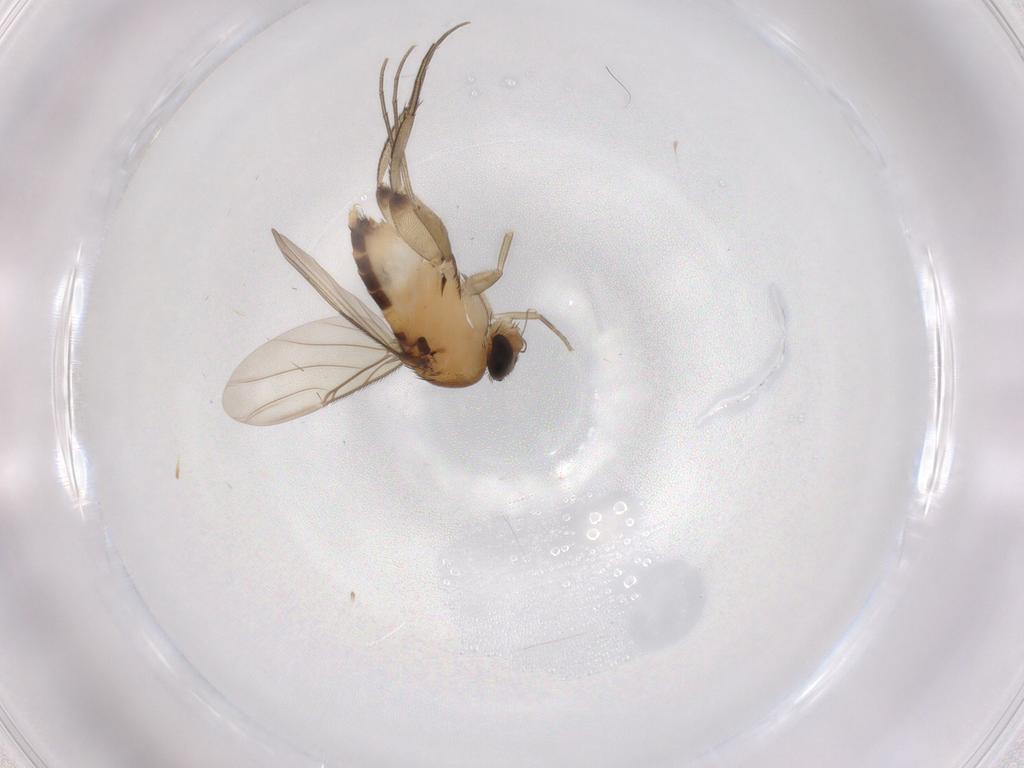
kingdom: Animalia
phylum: Arthropoda
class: Insecta
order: Diptera
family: Phoridae
